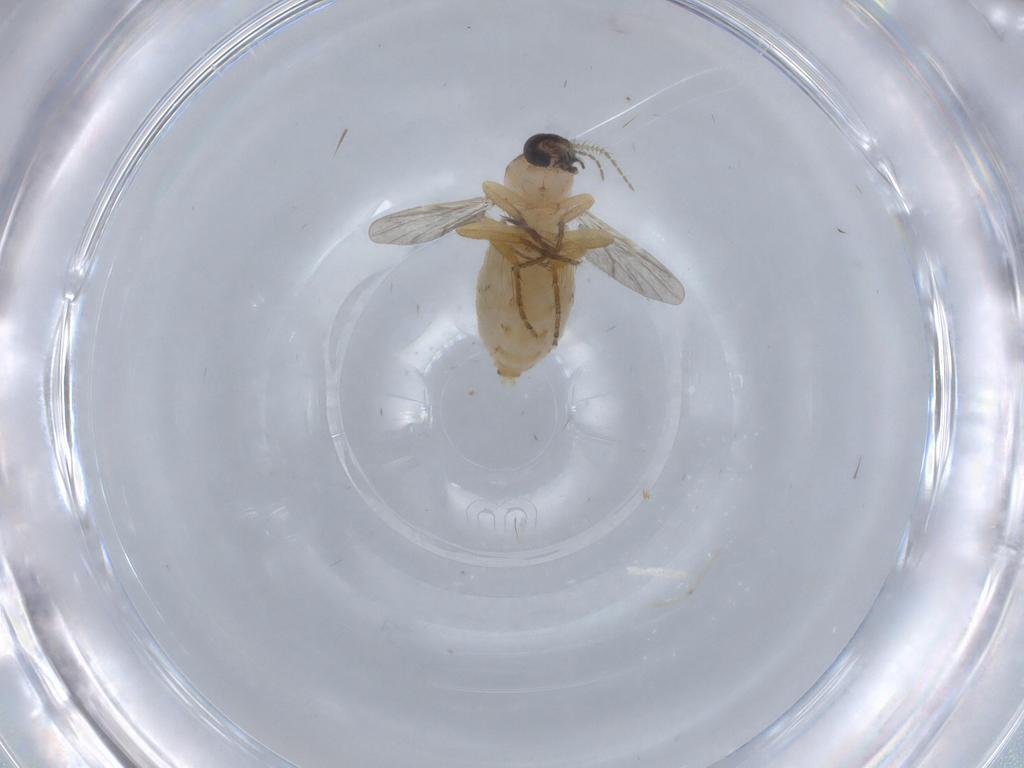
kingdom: Animalia
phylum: Arthropoda
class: Insecta
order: Diptera
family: Ceratopogonidae
